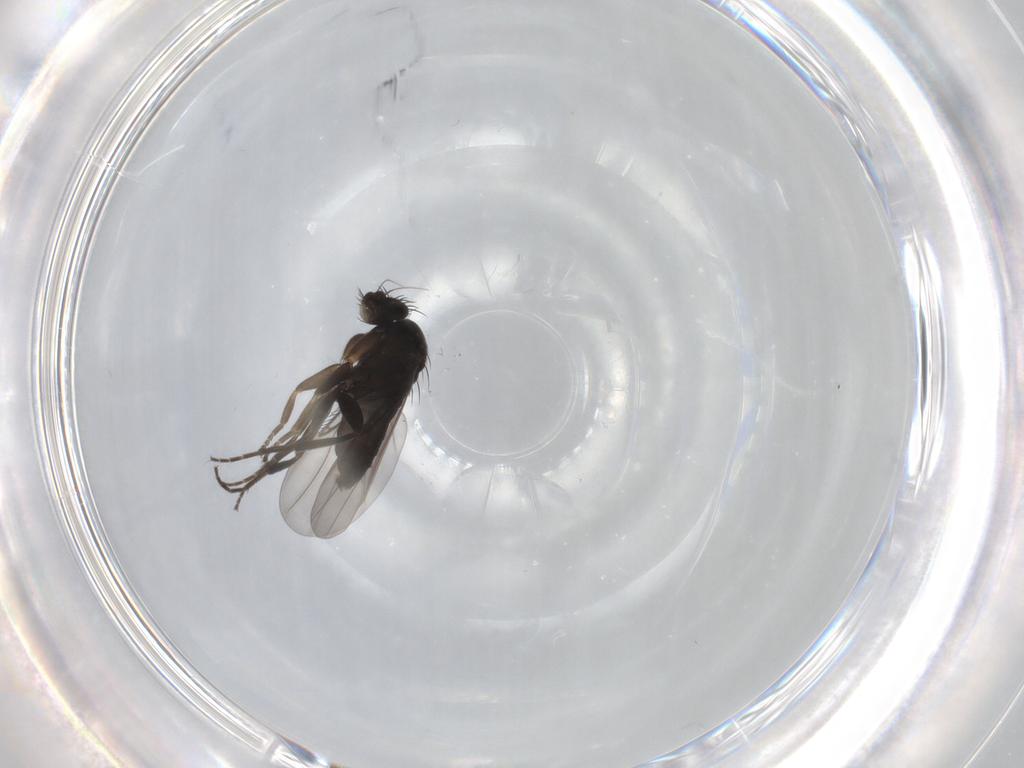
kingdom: Animalia
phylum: Arthropoda
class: Insecta
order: Diptera
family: Phoridae
